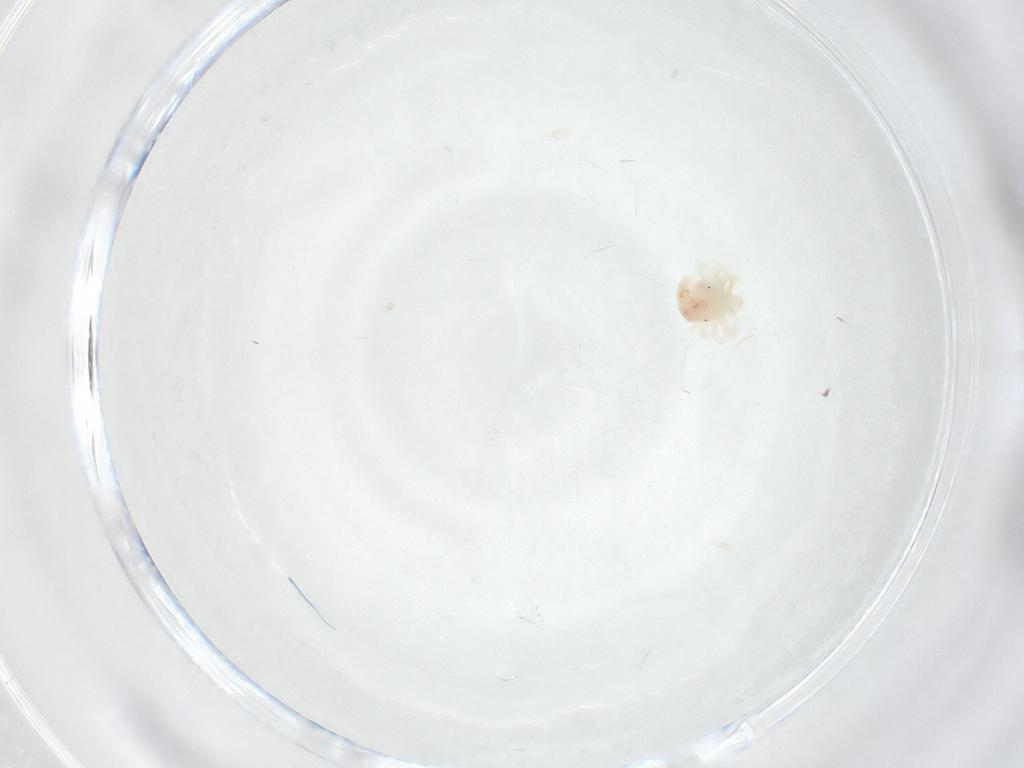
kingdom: Animalia
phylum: Arthropoda
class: Arachnida
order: Trombidiformes
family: Anystidae
